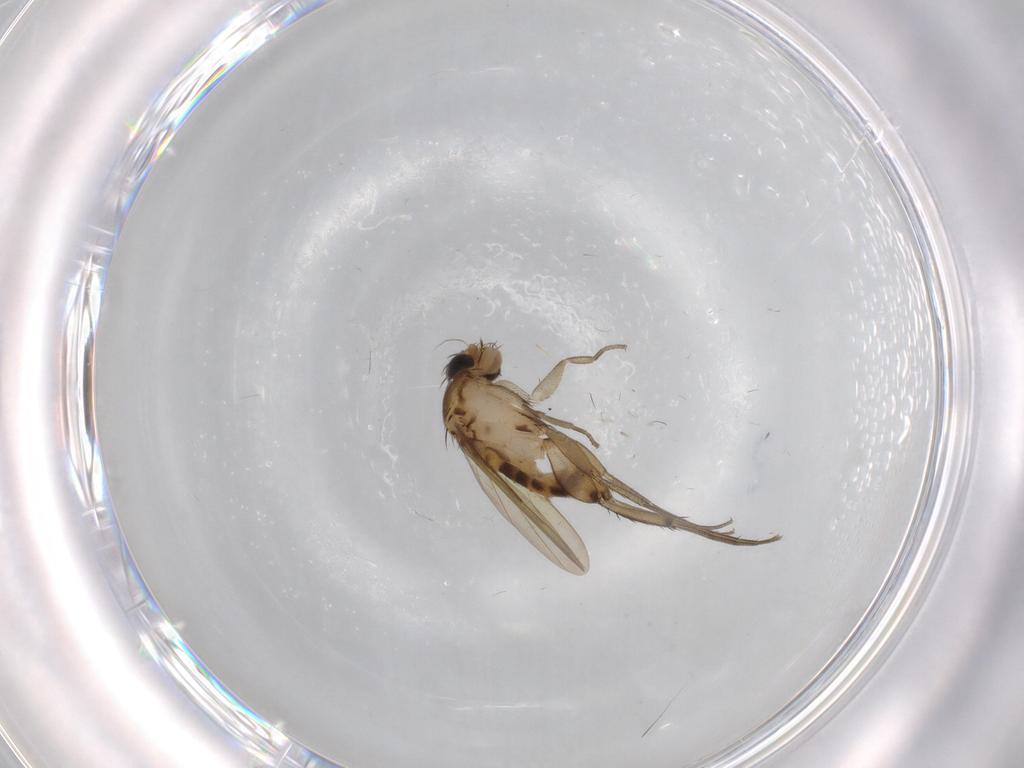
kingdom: Animalia
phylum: Arthropoda
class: Insecta
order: Diptera
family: Phoridae
